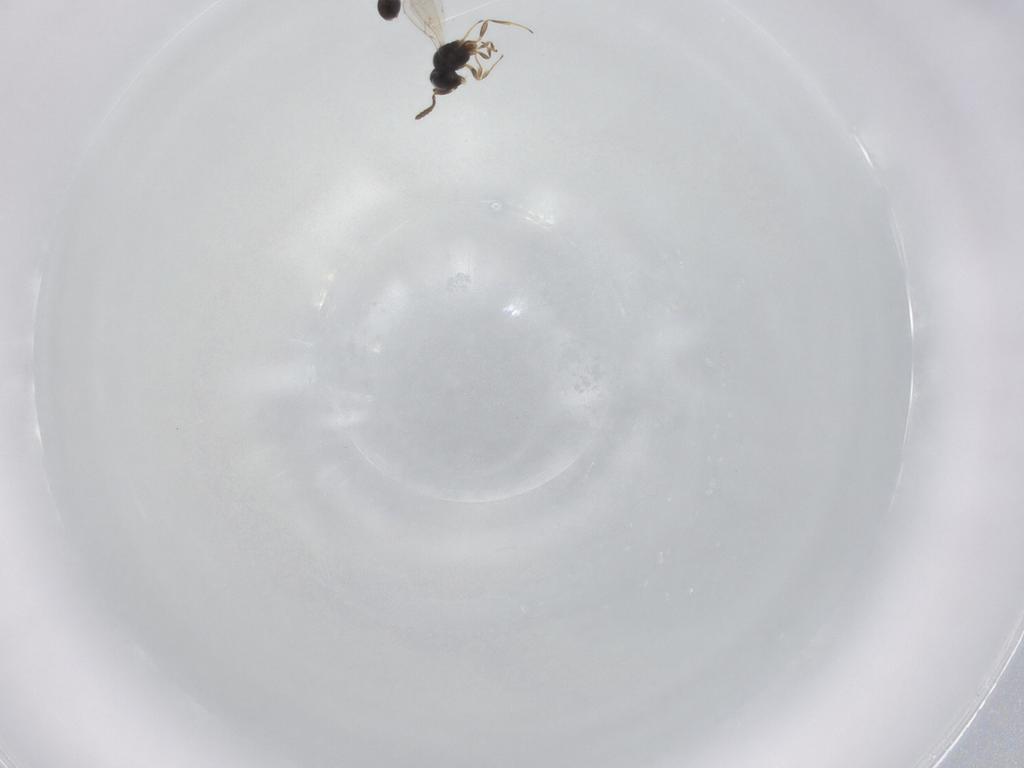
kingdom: Animalia
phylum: Arthropoda
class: Insecta
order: Hymenoptera
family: Scelionidae
